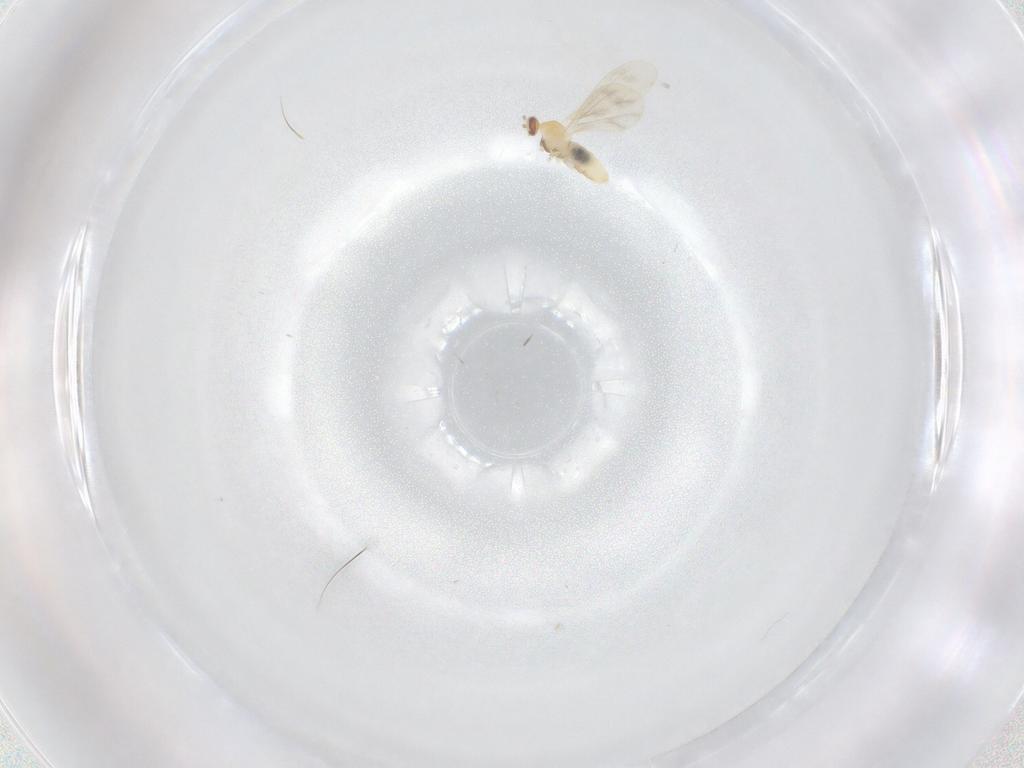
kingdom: Animalia
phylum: Arthropoda
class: Insecta
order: Diptera
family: Cecidomyiidae
